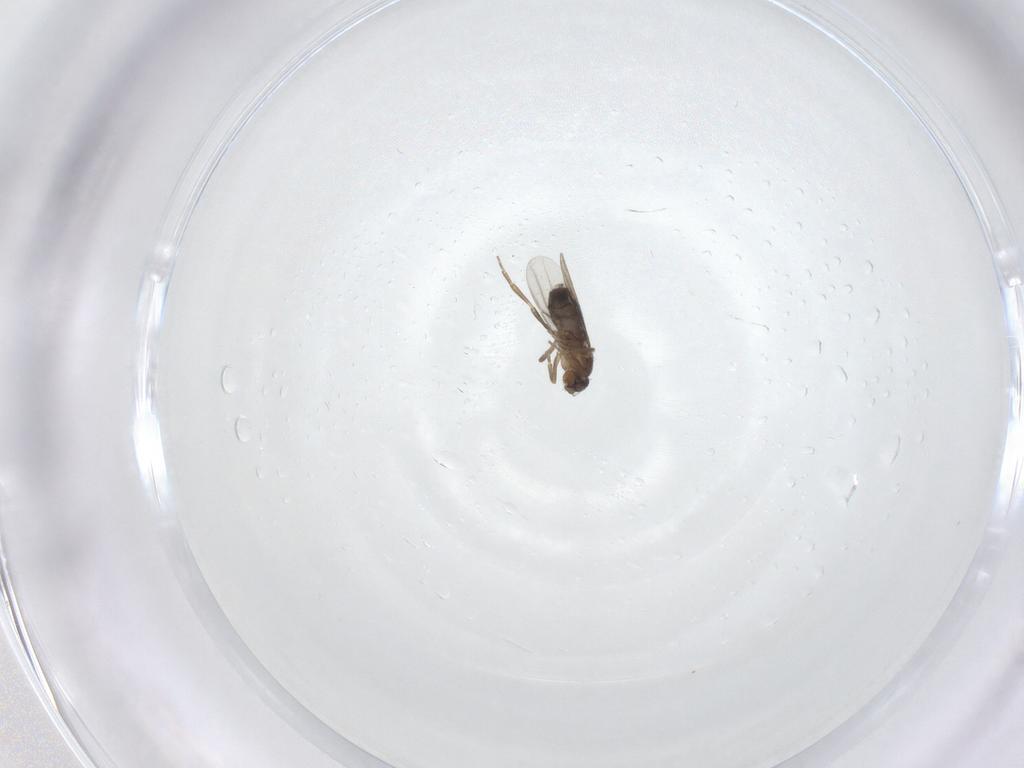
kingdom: Animalia
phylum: Arthropoda
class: Insecta
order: Diptera
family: Phoridae
